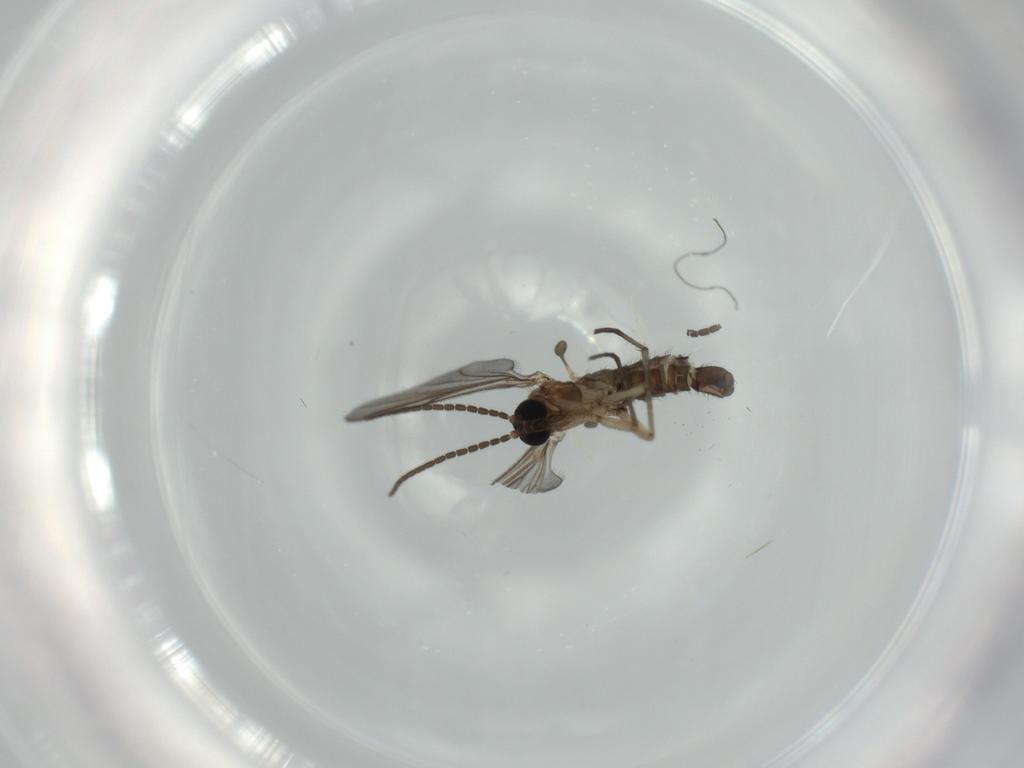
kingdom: Animalia
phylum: Arthropoda
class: Insecta
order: Diptera
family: Sciaridae
